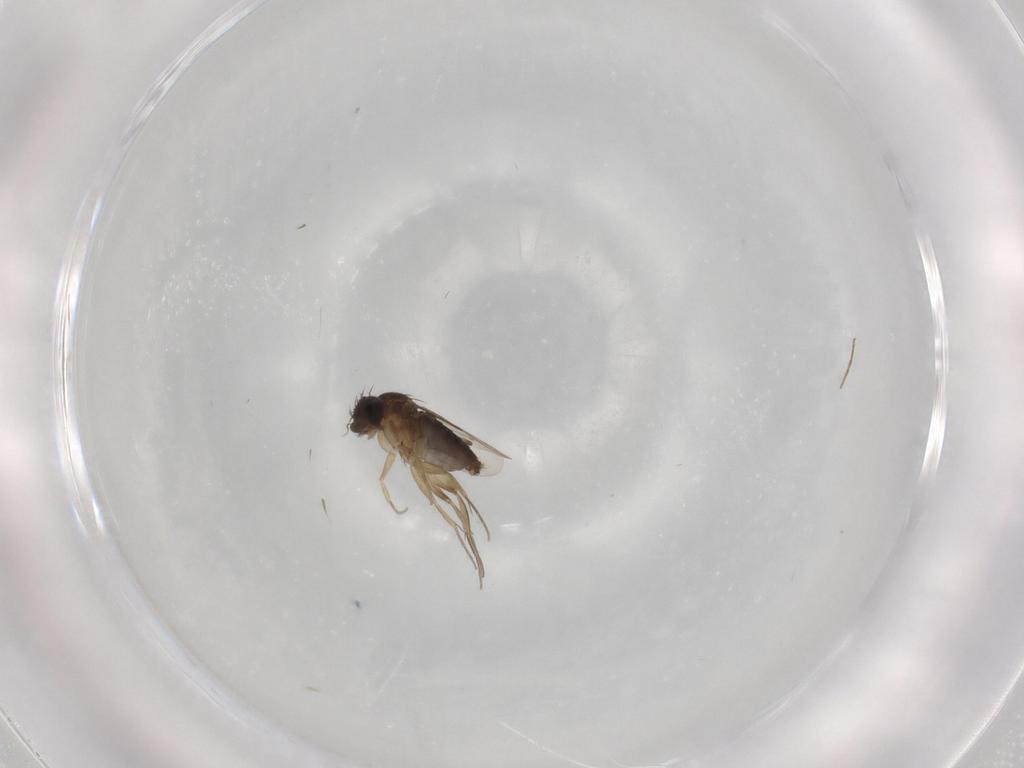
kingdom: Animalia
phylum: Arthropoda
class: Insecta
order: Diptera
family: Phoridae
